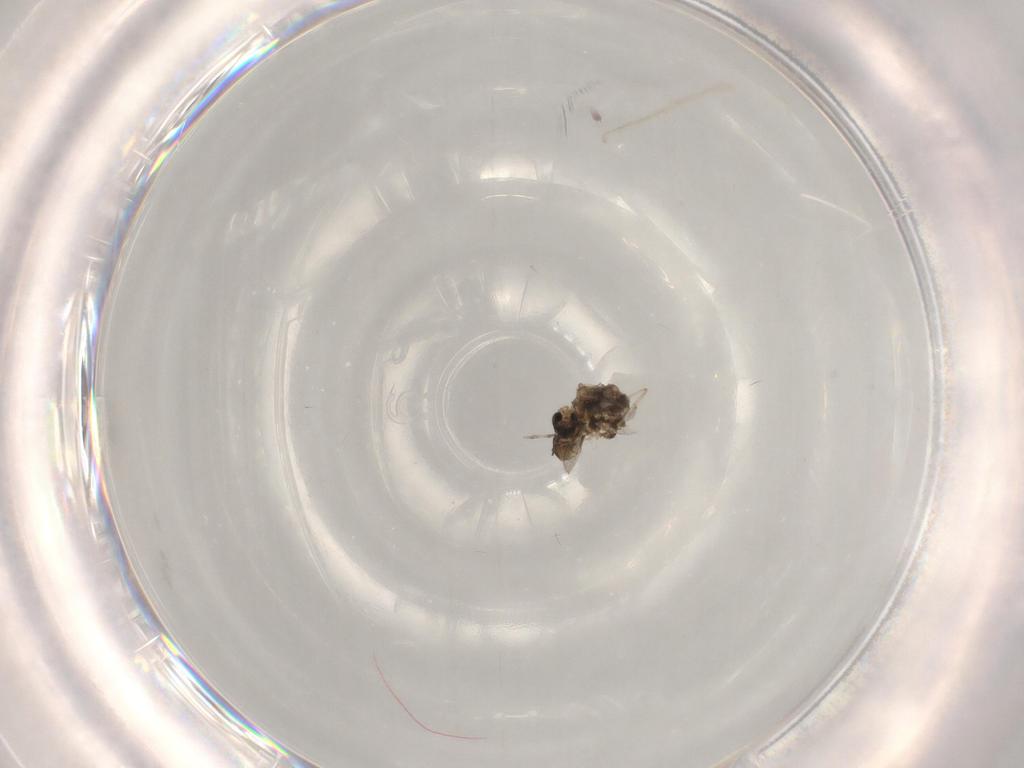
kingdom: Animalia
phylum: Arthropoda
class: Insecta
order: Diptera
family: Cecidomyiidae
